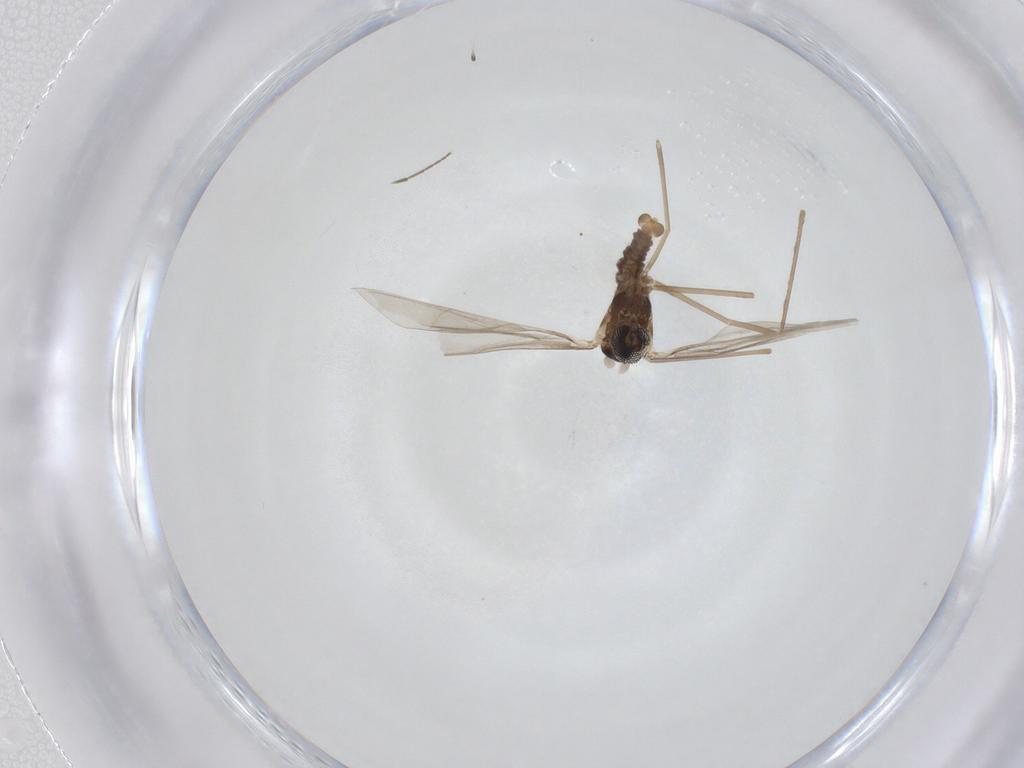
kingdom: Animalia
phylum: Arthropoda
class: Insecta
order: Diptera
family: Cecidomyiidae
